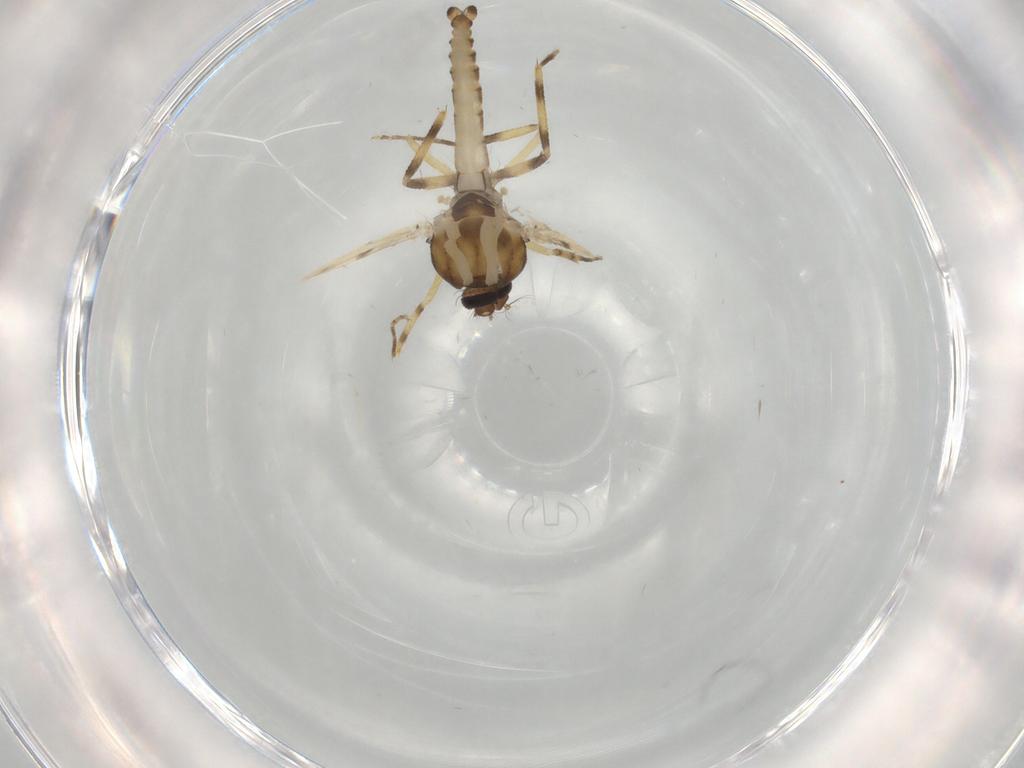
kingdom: Animalia
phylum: Arthropoda
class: Insecta
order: Diptera
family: Ceratopogonidae
